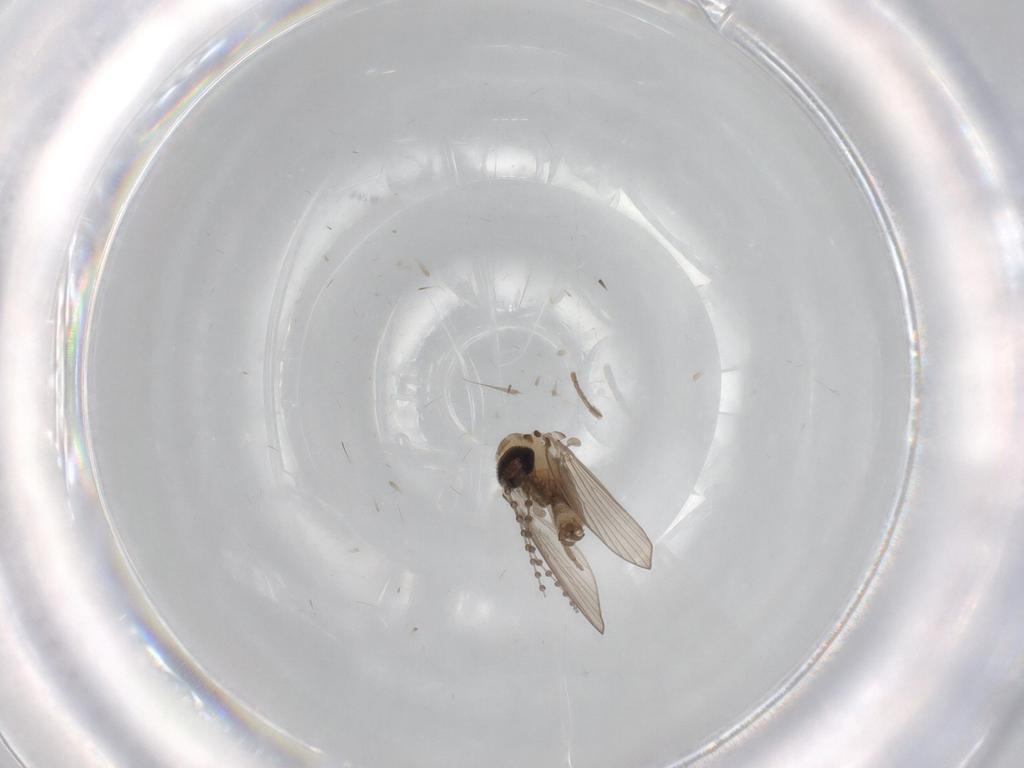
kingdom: Animalia
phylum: Arthropoda
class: Insecta
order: Diptera
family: Psychodidae
